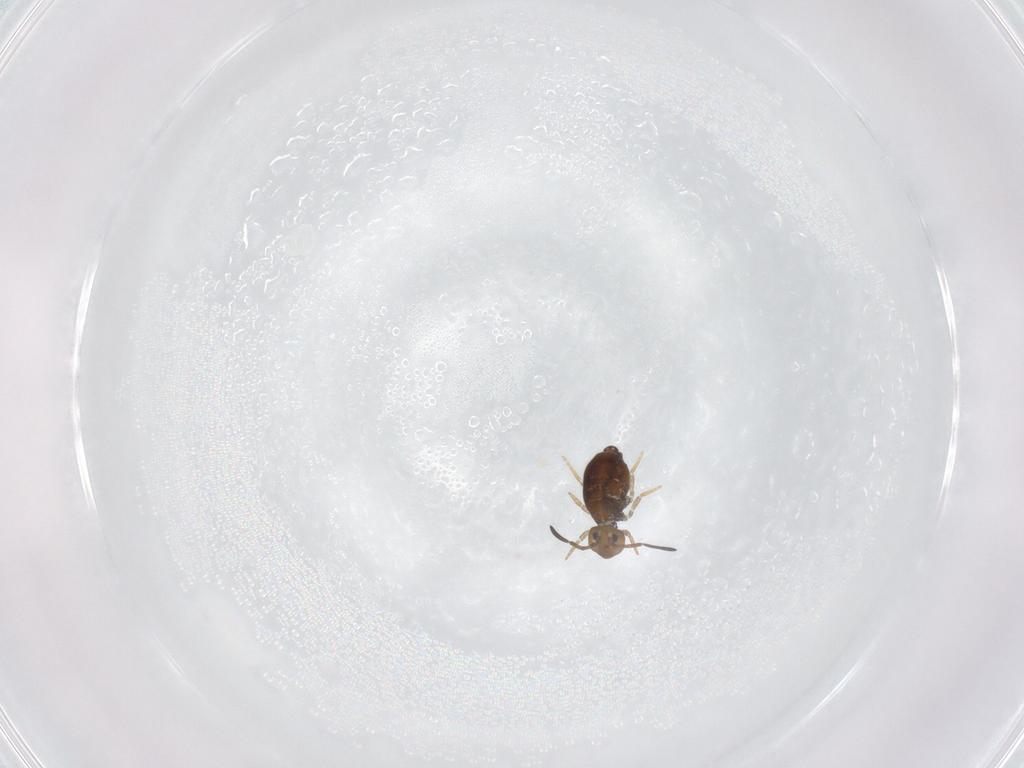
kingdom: Animalia
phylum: Arthropoda
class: Collembola
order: Symphypleona
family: Katiannidae
